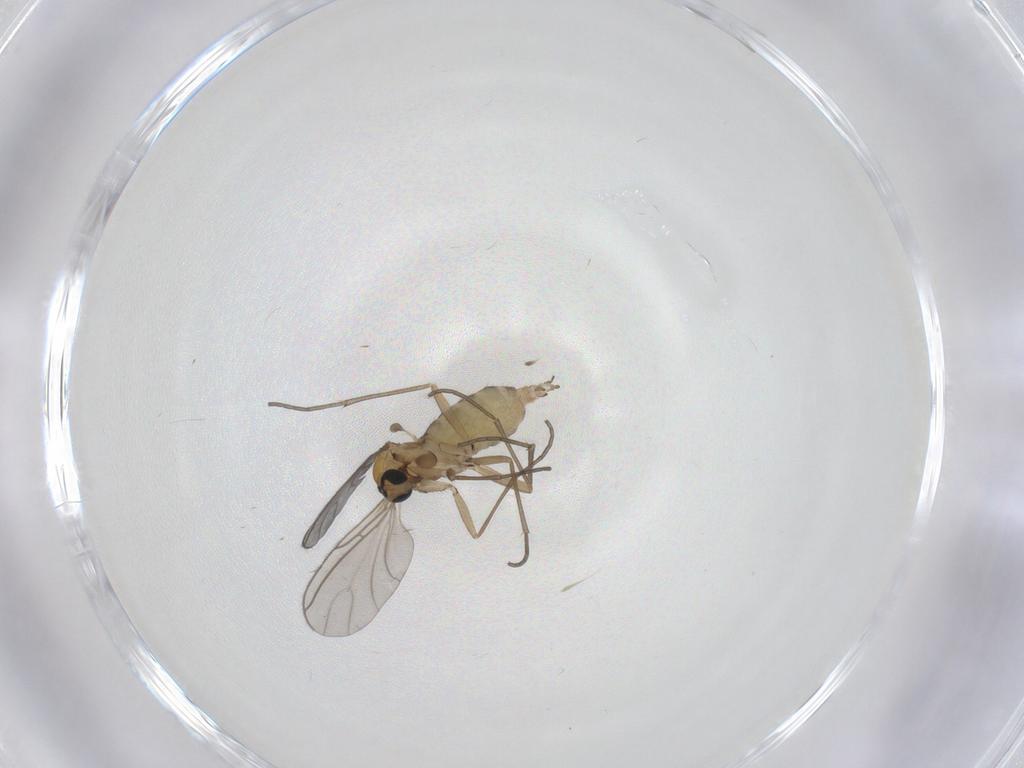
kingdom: Animalia
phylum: Arthropoda
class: Insecta
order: Diptera
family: Sciaridae
